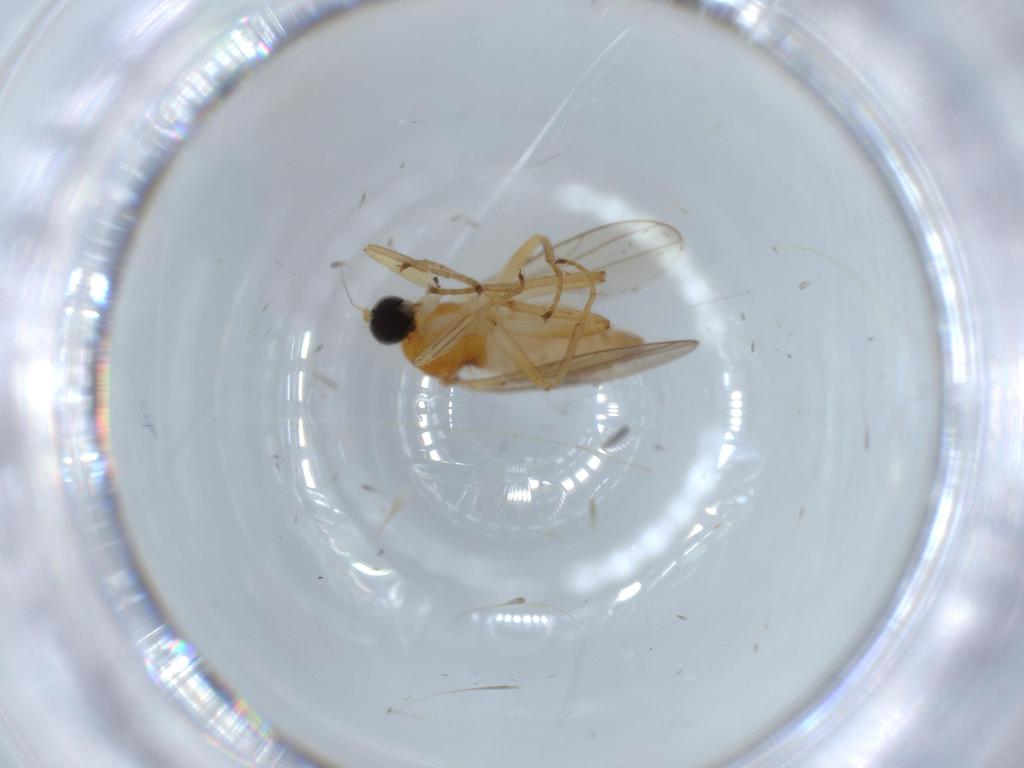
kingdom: Animalia
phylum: Arthropoda
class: Insecta
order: Diptera
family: Hybotidae
